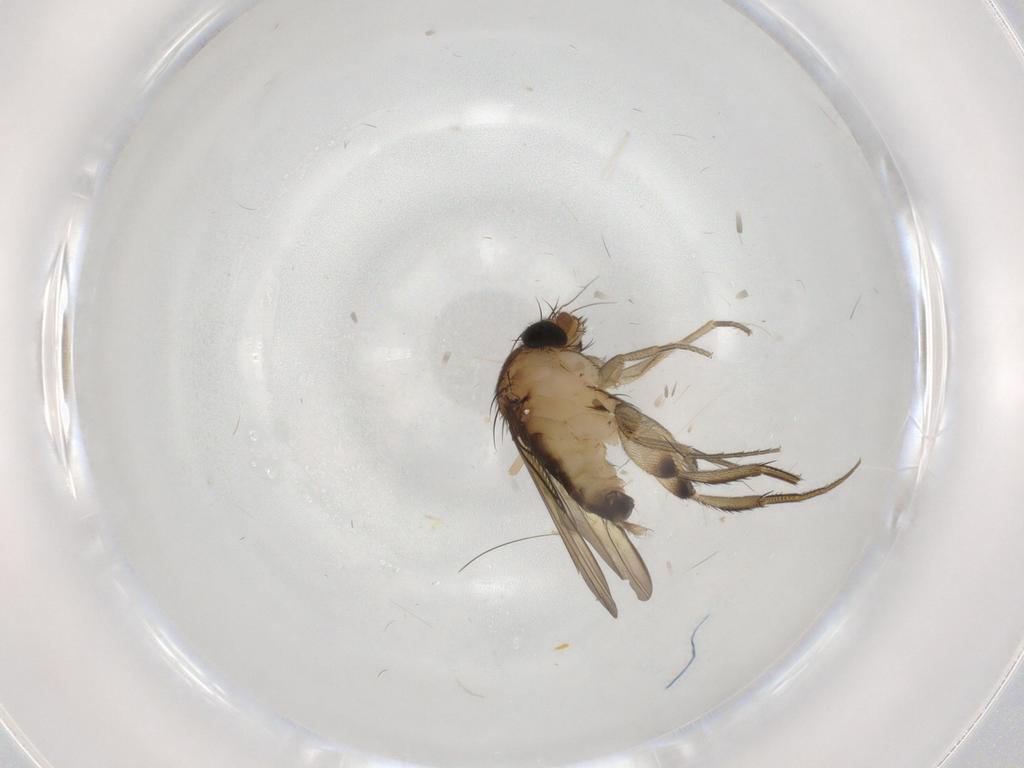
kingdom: Animalia
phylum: Arthropoda
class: Insecta
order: Diptera
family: Phoridae
